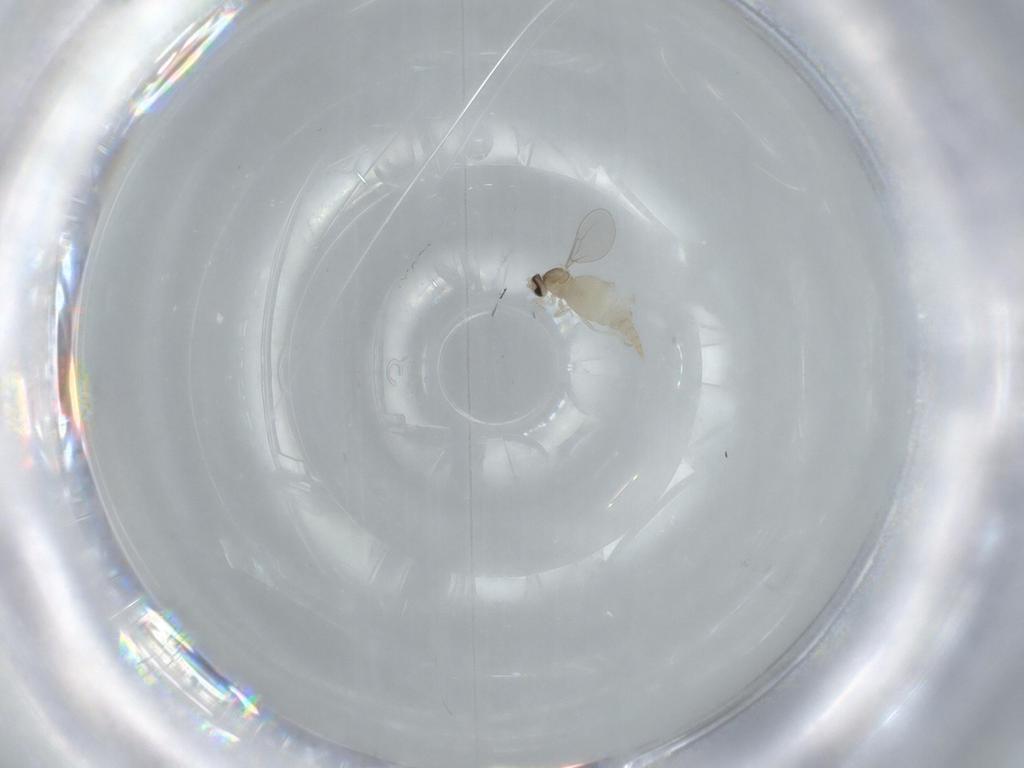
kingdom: Animalia
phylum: Arthropoda
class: Insecta
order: Diptera
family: Cecidomyiidae
